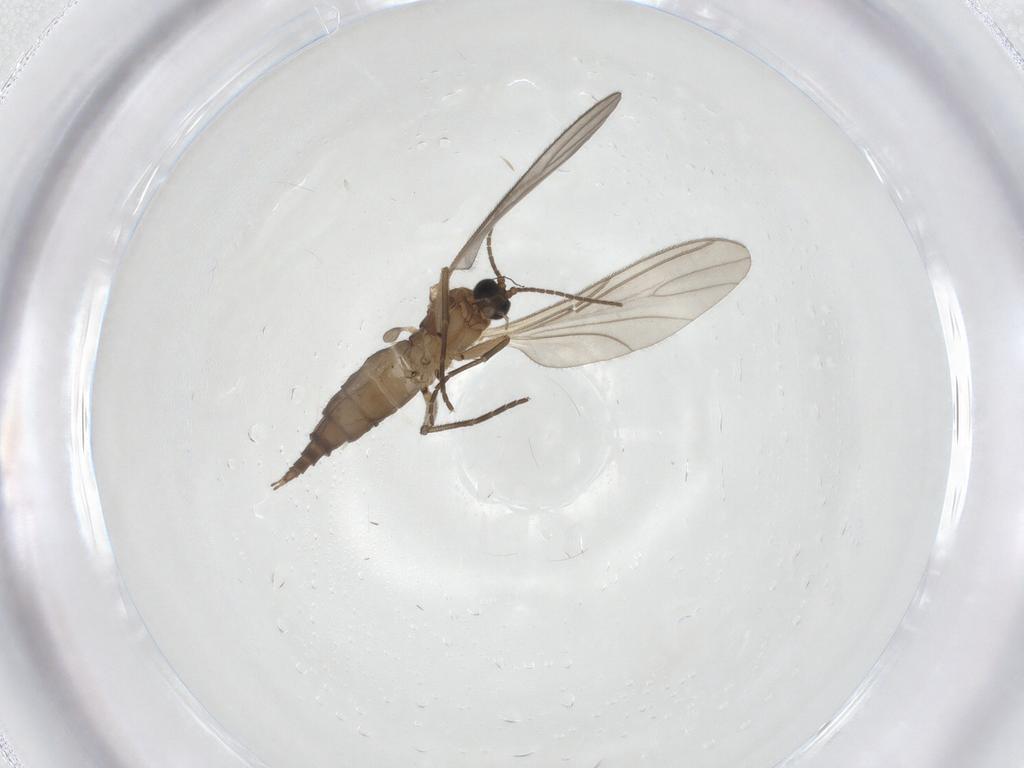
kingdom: Animalia
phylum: Arthropoda
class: Insecta
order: Diptera
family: Sciaridae
